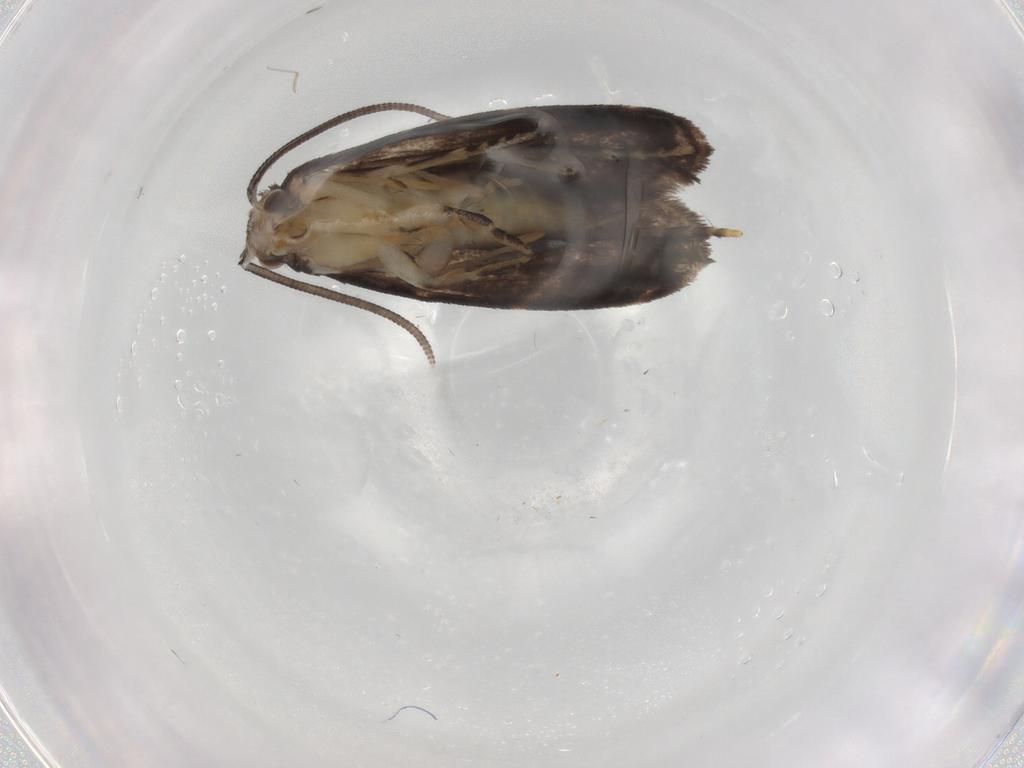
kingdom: Animalia
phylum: Arthropoda
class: Insecta
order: Lepidoptera
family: Dryadaulidae
